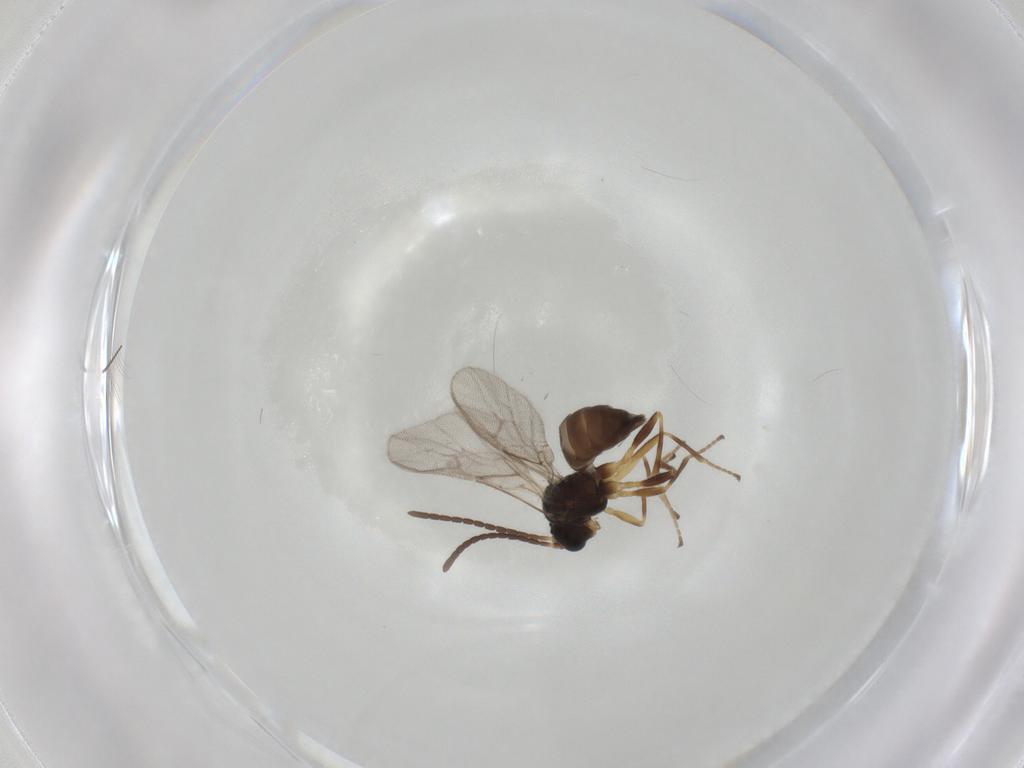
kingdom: Animalia
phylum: Arthropoda
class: Insecta
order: Hymenoptera
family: Braconidae
